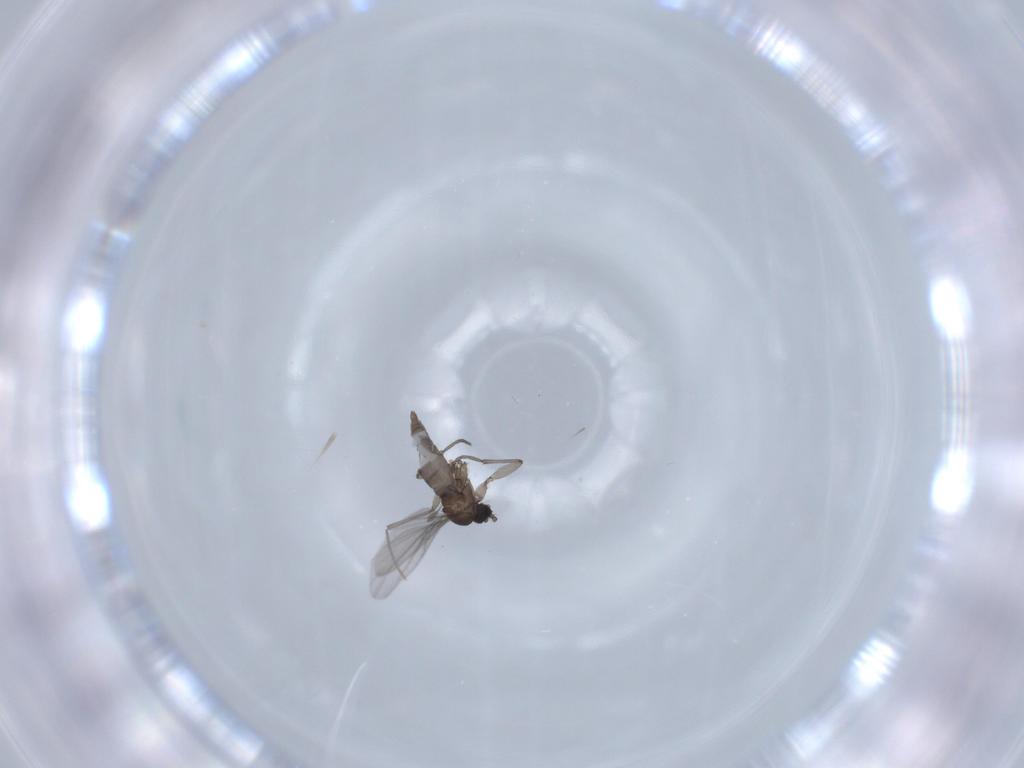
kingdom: Animalia
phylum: Arthropoda
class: Insecta
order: Diptera
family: Sciaridae
